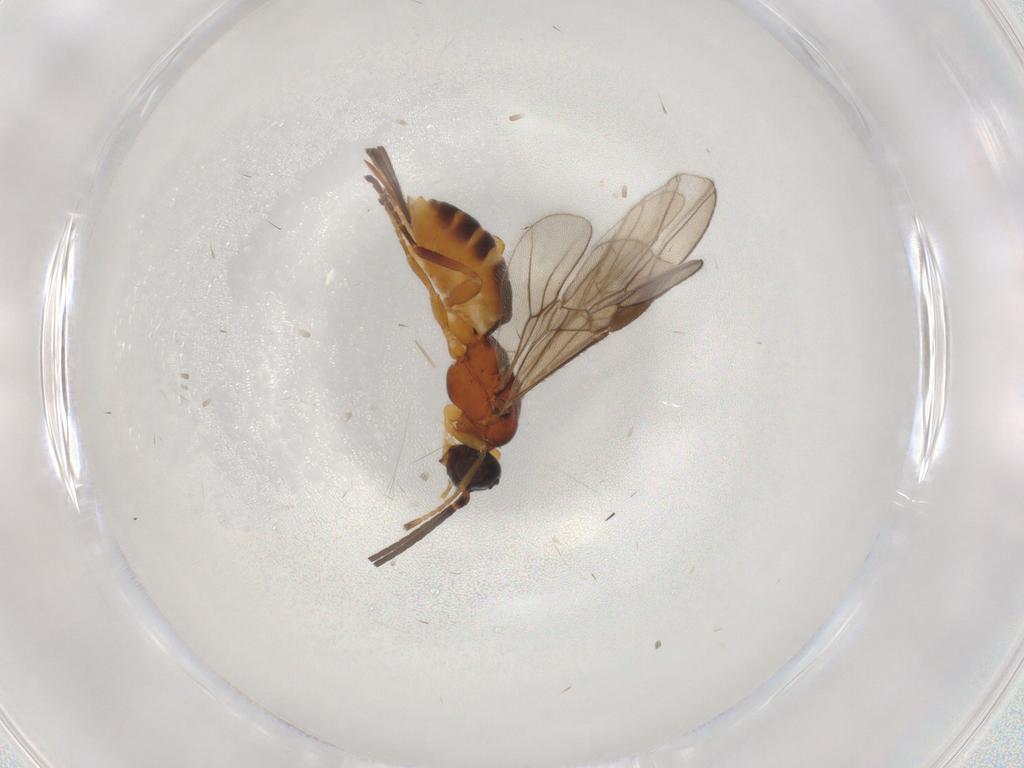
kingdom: Animalia
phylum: Arthropoda
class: Insecta
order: Hymenoptera
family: Braconidae
